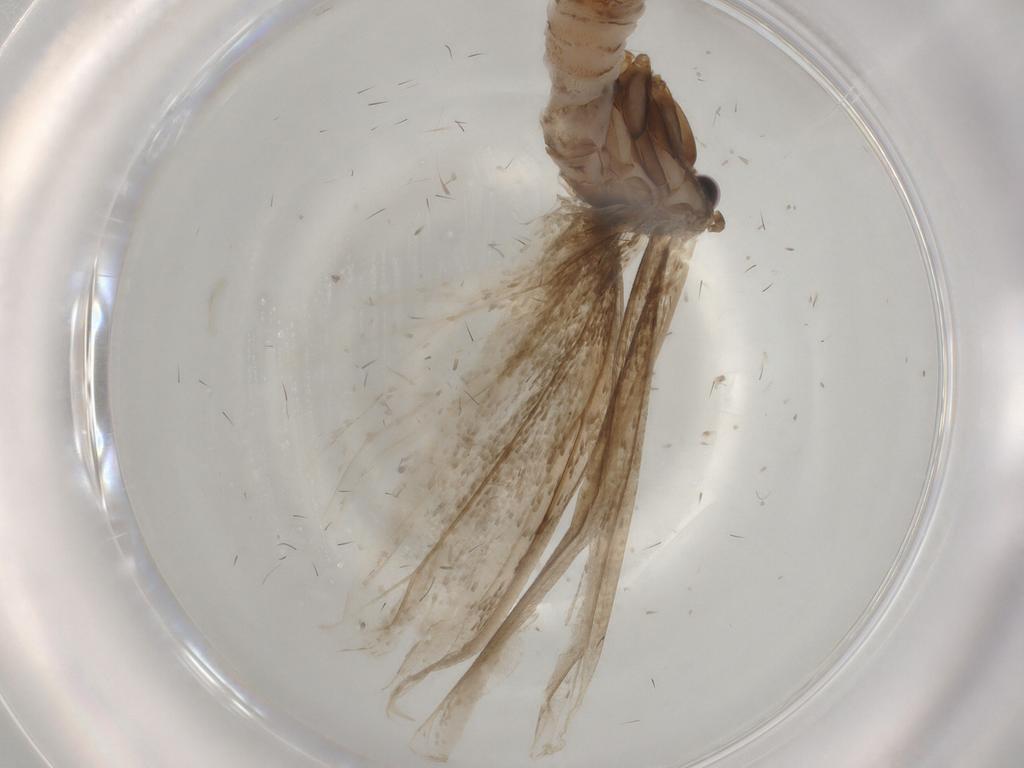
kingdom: Animalia
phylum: Arthropoda
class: Insecta
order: Lepidoptera
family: Yponomeutidae
